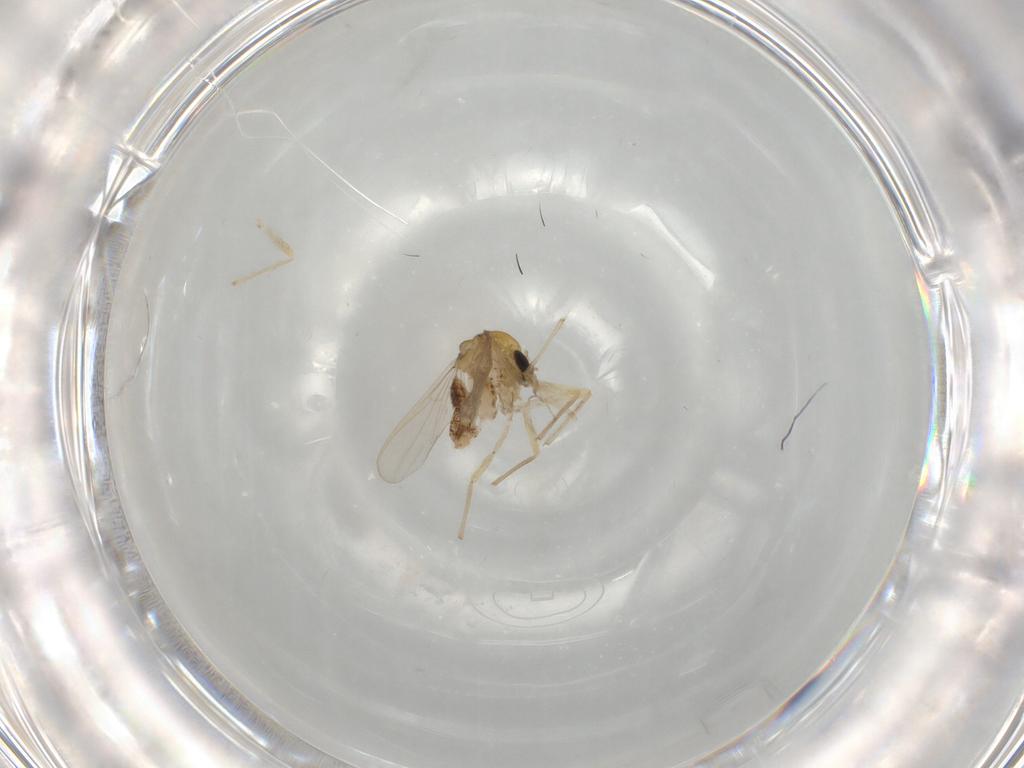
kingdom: Animalia
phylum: Arthropoda
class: Insecta
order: Diptera
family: Chironomidae
